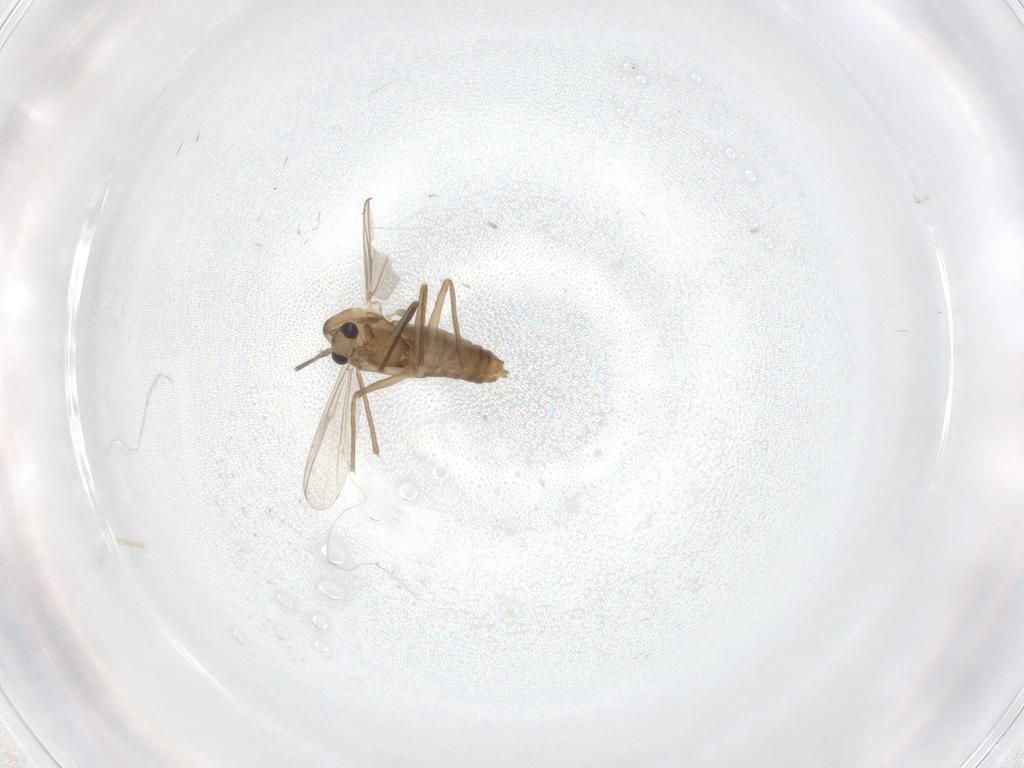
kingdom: Animalia
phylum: Arthropoda
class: Insecta
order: Diptera
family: Chironomidae
